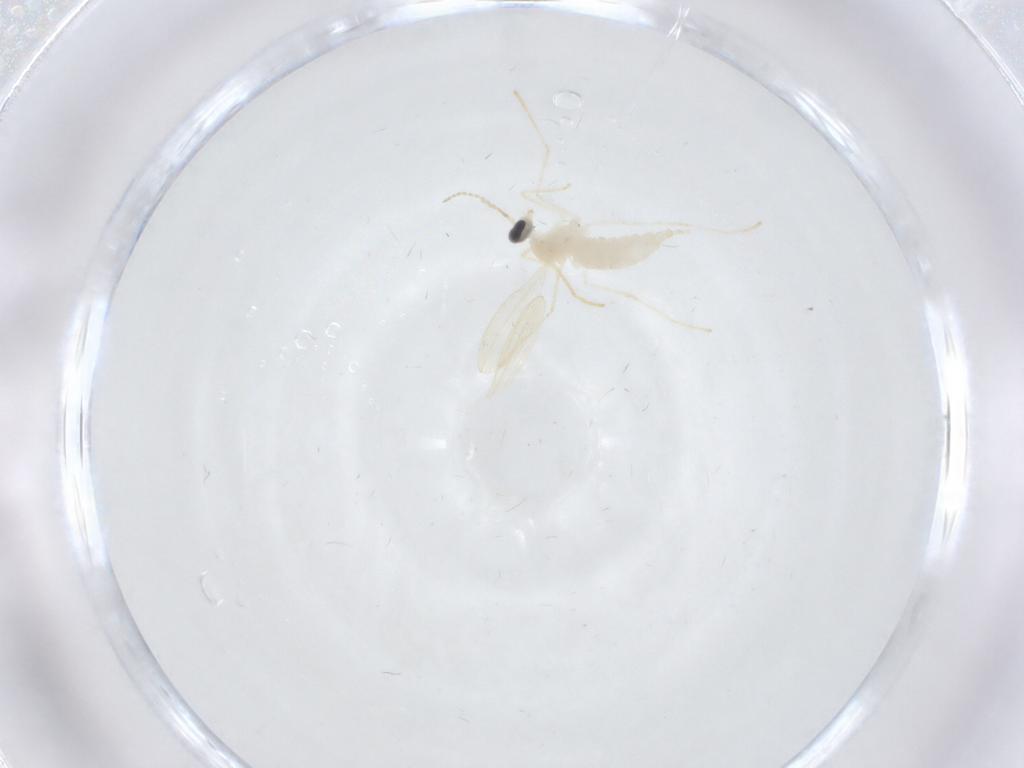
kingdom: Animalia
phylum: Arthropoda
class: Insecta
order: Diptera
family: Cecidomyiidae
